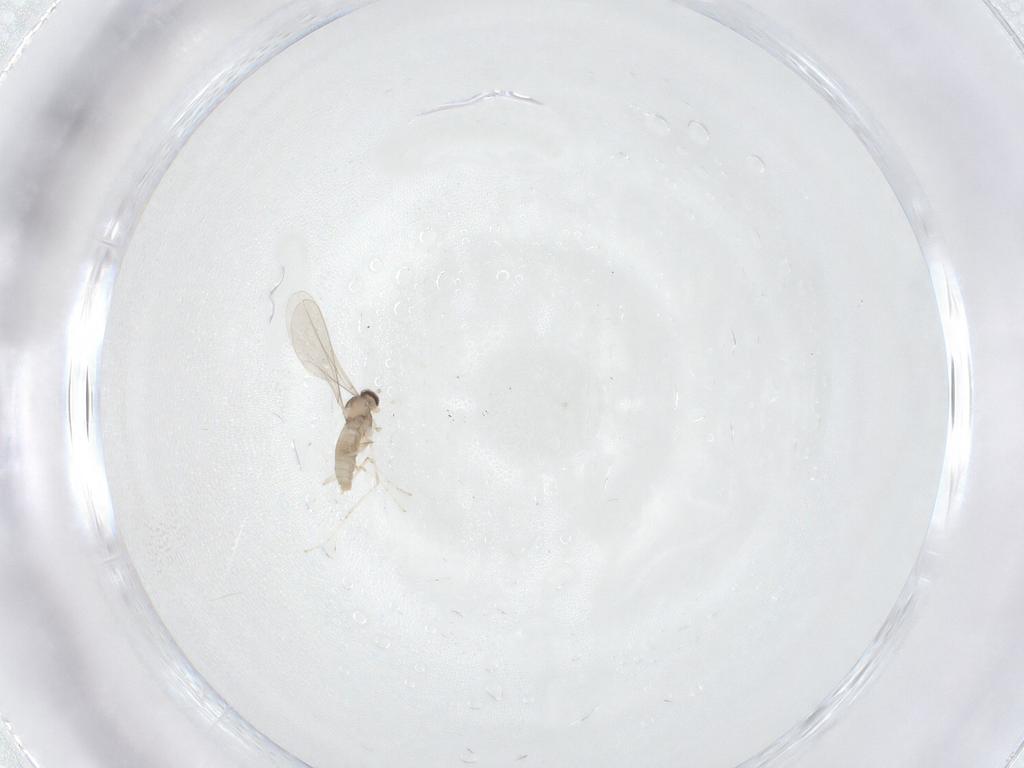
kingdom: Animalia
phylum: Arthropoda
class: Insecta
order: Diptera
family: Cecidomyiidae
